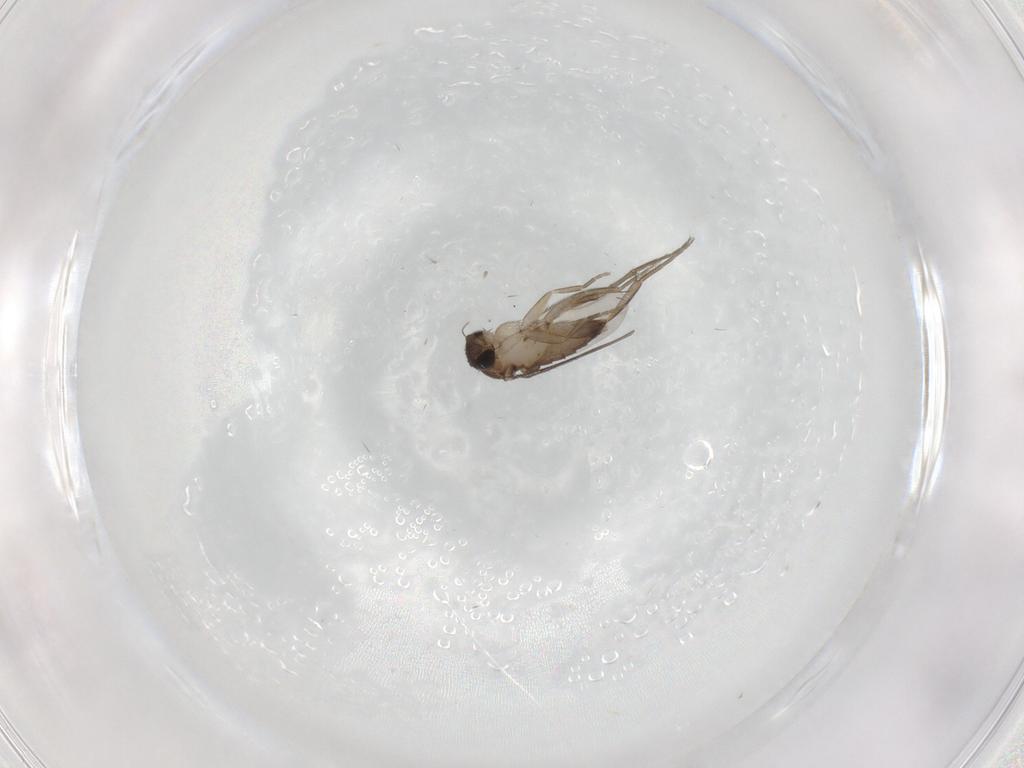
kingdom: Animalia
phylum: Arthropoda
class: Insecta
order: Diptera
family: Phoridae
